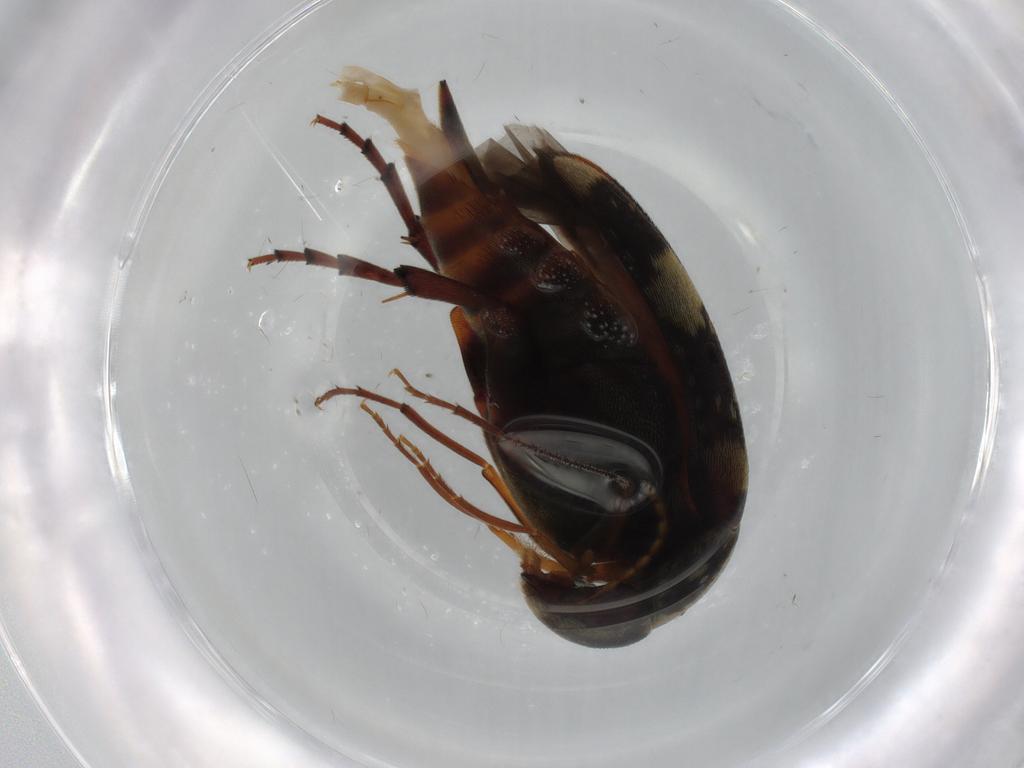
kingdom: Animalia
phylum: Arthropoda
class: Insecta
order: Coleoptera
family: Mordellidae
